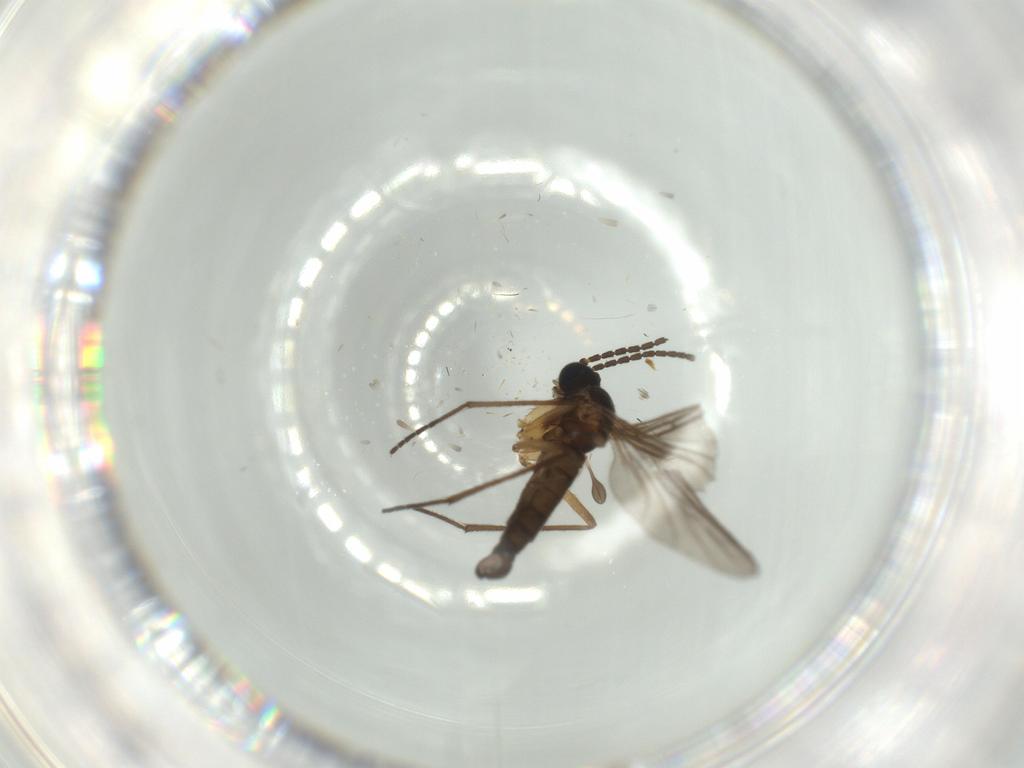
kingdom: Animalia
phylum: Arthropoda
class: Insecta
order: Diptera
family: Sciaridae
